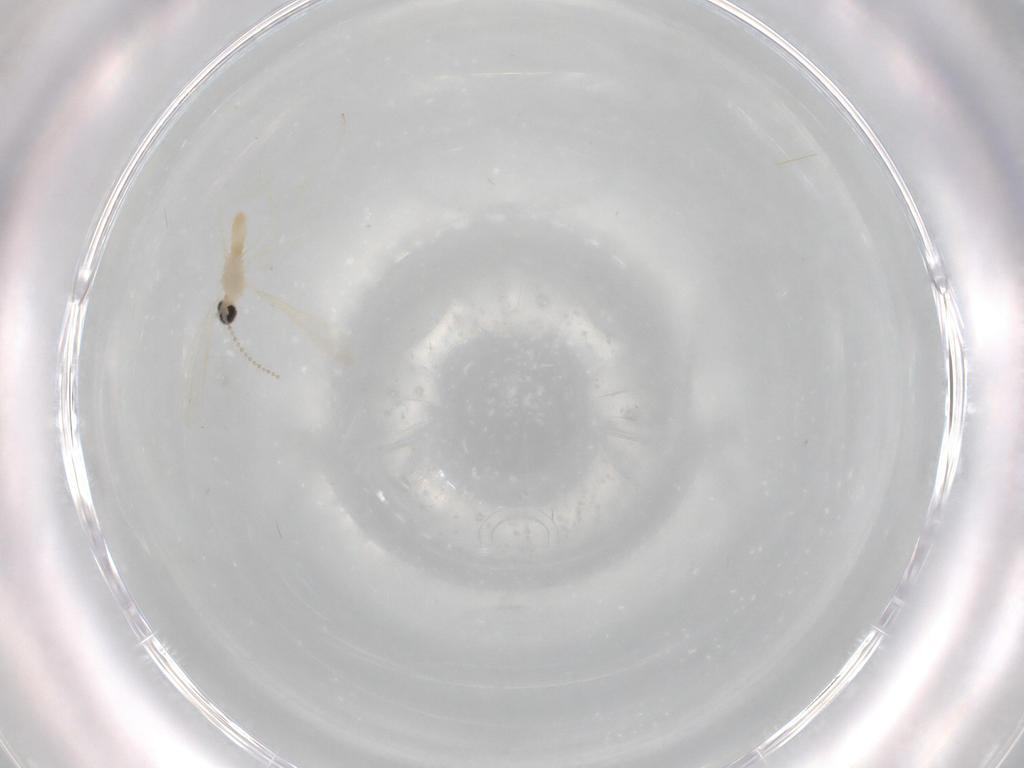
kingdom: Animalia
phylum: Arthropoda
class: Insecta
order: Diptera
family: Cecidomyiidae
